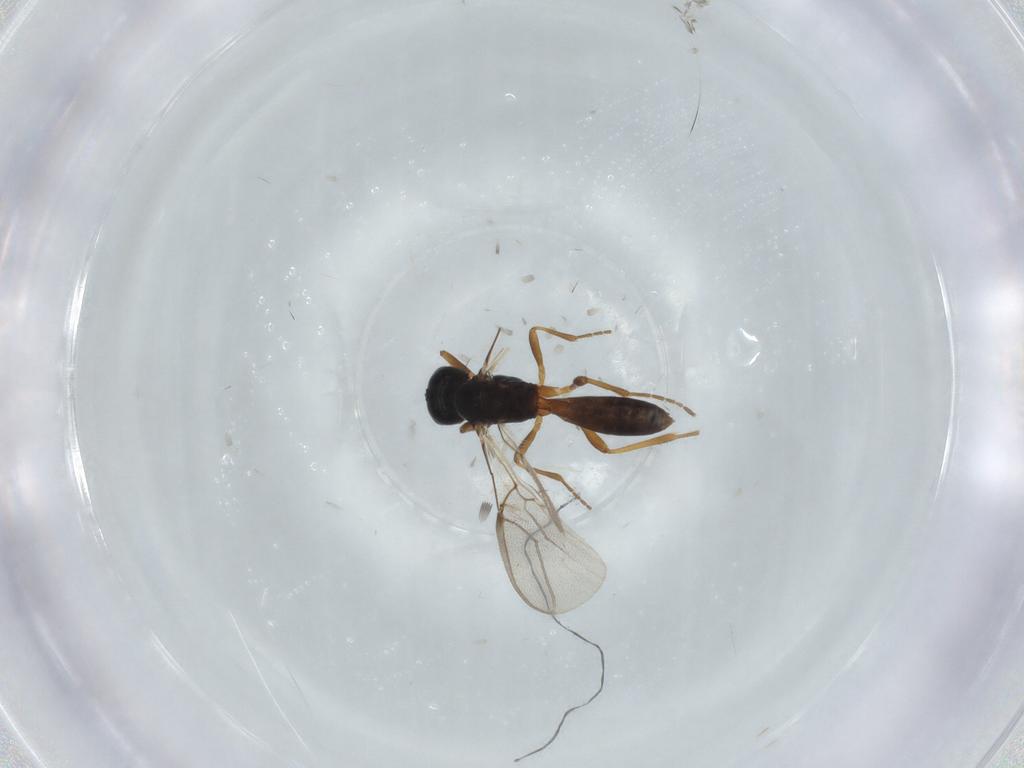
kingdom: Animalia
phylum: Arthropoda
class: Insecta
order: Hymenoptera
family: Braconidae
